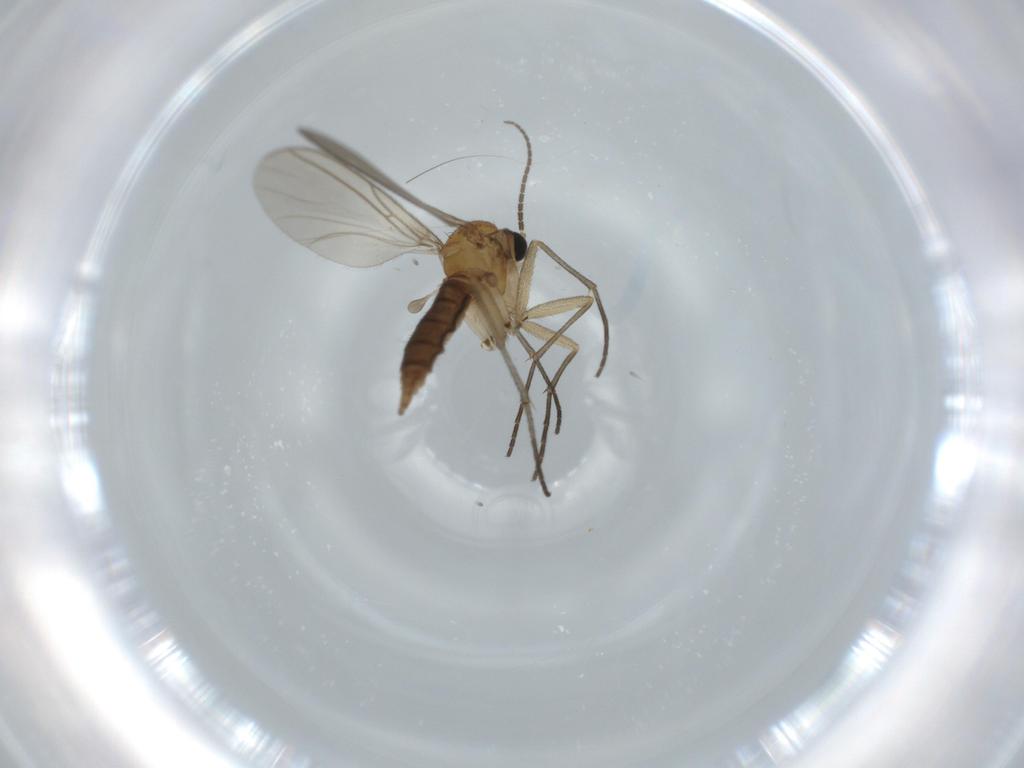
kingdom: Animalia
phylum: Arthropoda
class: Insecta
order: Diptera
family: Sciaridae
